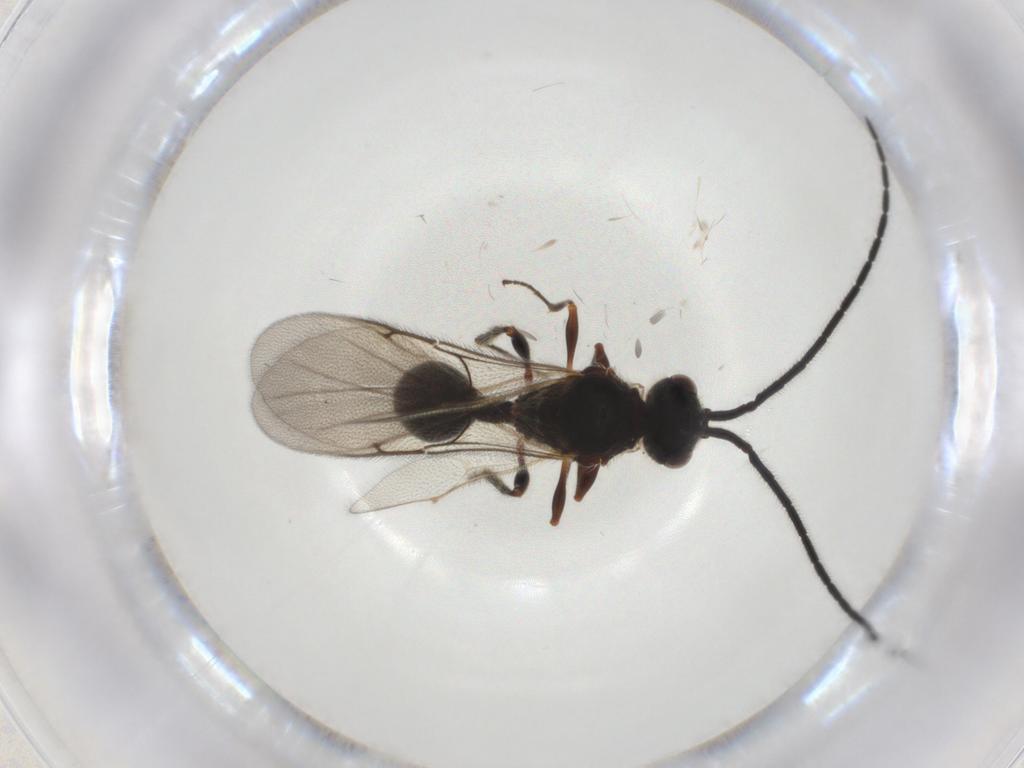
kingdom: Animalia
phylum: Arthropoda
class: Insecta
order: Hymenoptera
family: Diapriidae
